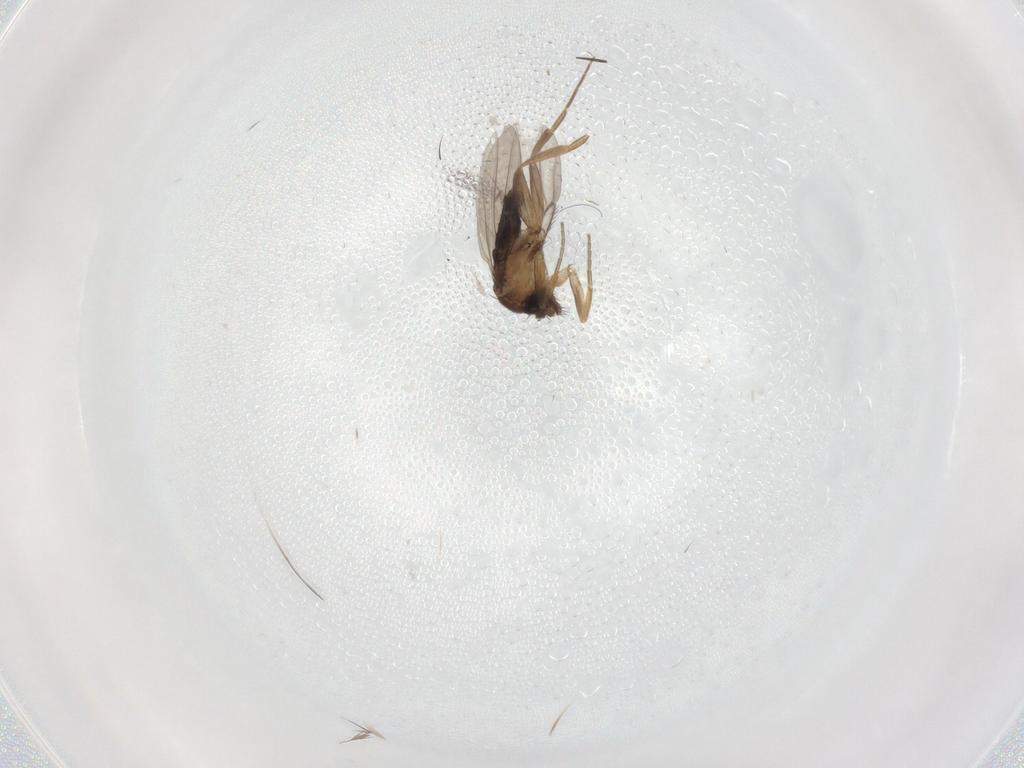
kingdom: Animalia
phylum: Arthropoda
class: Insecta
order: Diptera
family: Phoridae
